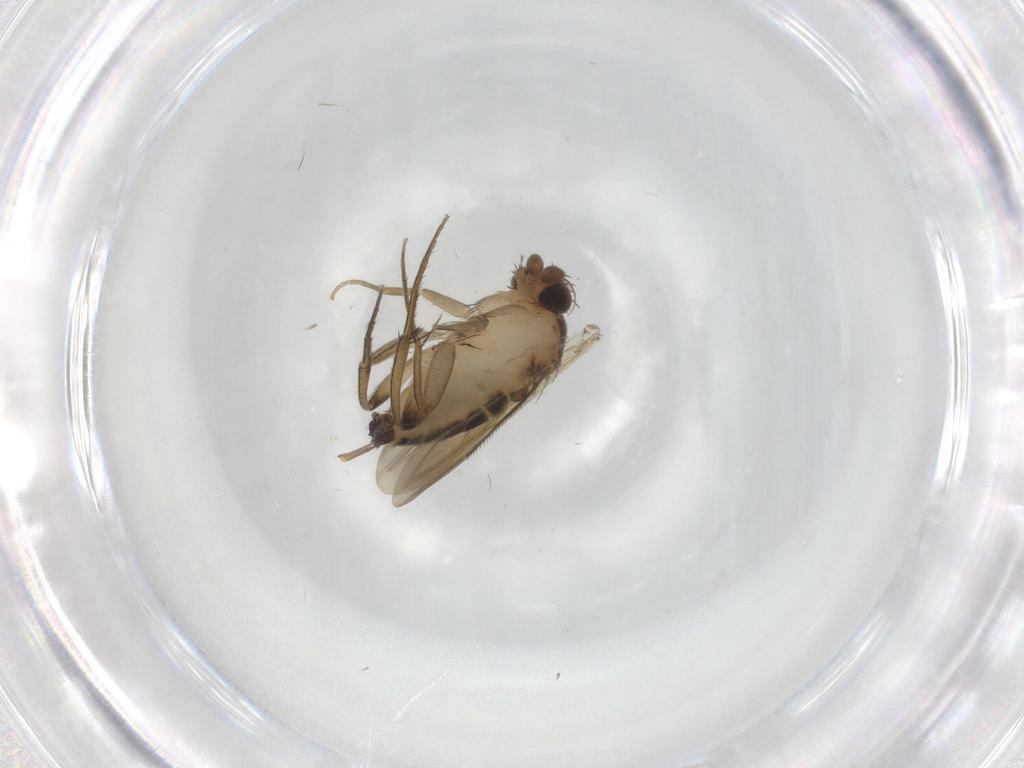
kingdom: Animalia
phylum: Arthropoda
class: Insecta
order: Diptera
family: Phoridae
